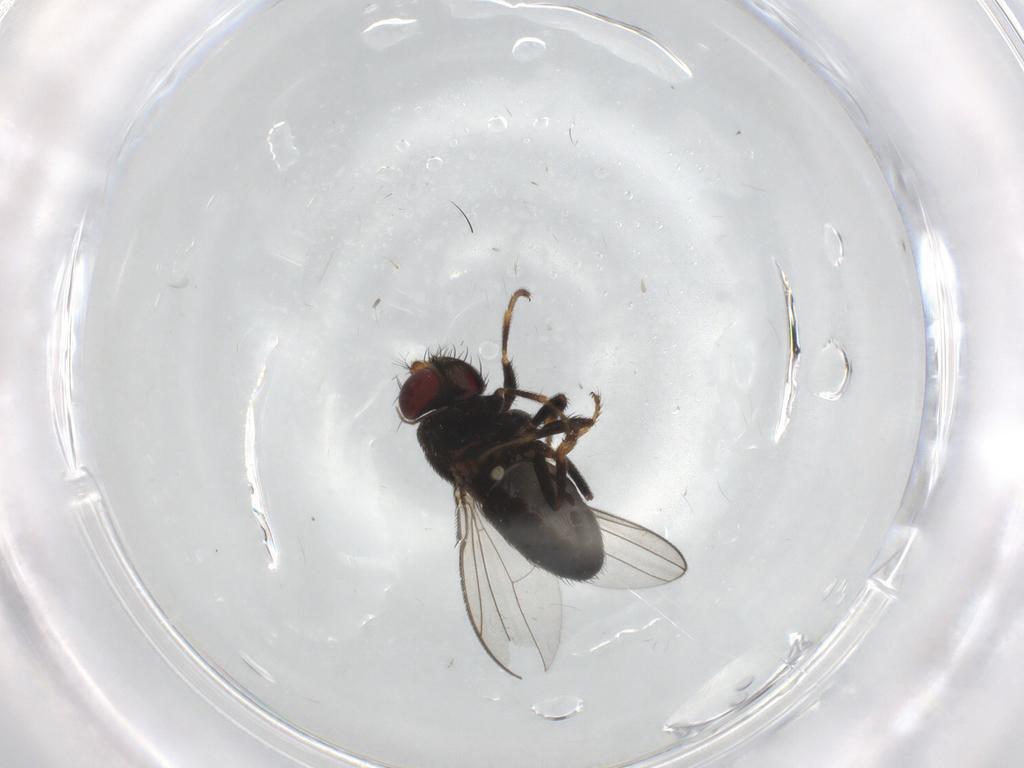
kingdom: Animalia
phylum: Arthropoda
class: Insecta
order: Diptera
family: Ephydridae
